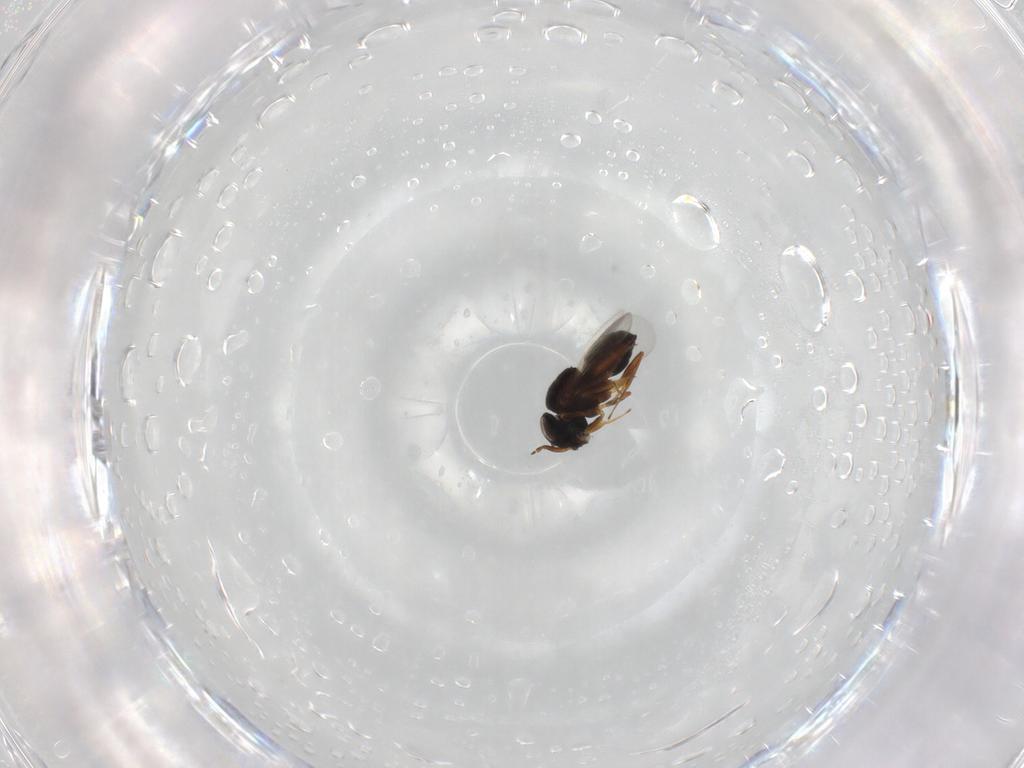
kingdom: Animalia
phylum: Arthropoda
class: Insecta
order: Hymenoptera
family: Scelionidae
